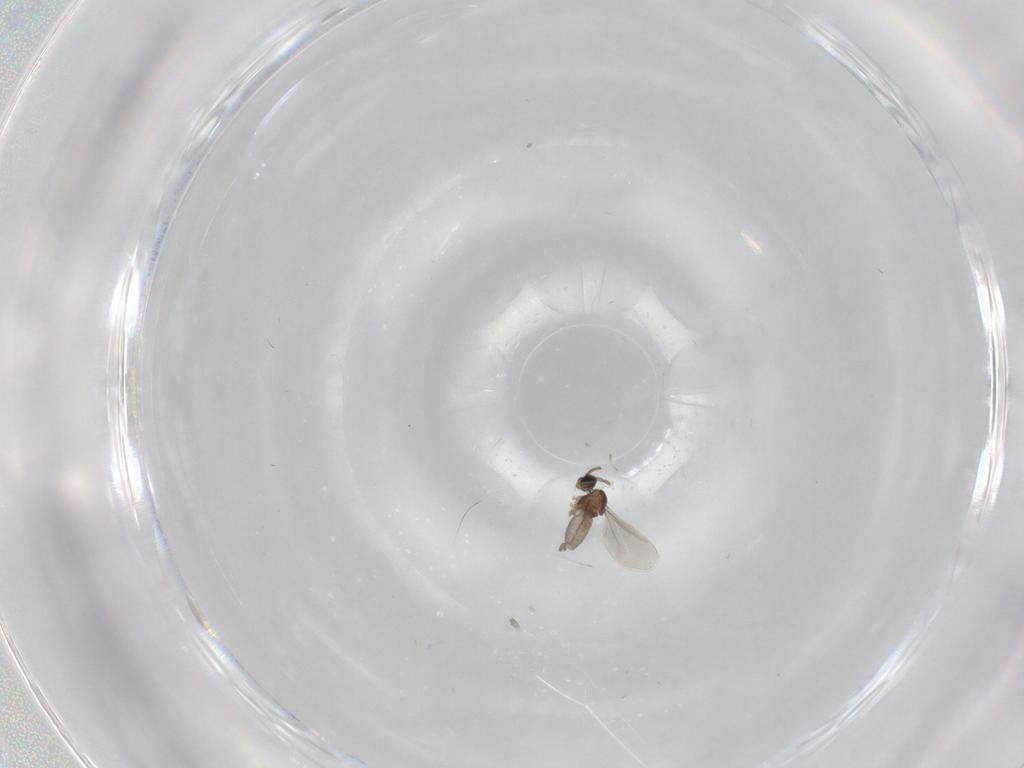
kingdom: Animalia
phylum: Arthropoda
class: Insecta
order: Diptera
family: Cecidomyiidae
